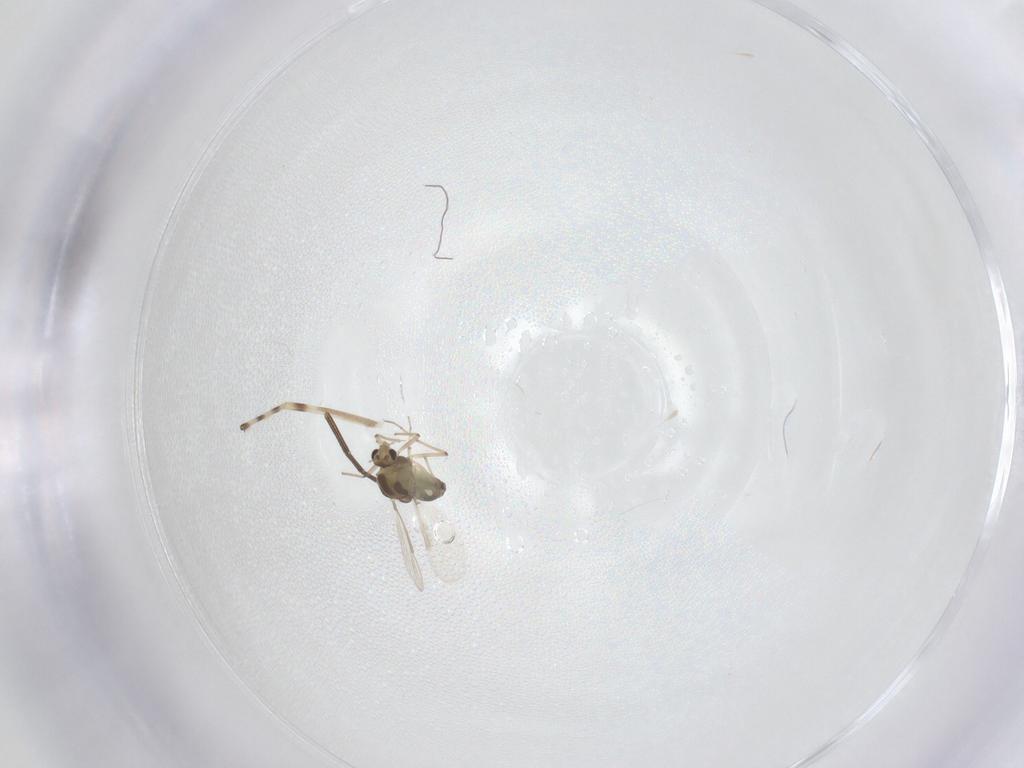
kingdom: Animalia
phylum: Arthropoda
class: Insecta
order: Diptera
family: Chironomidae
